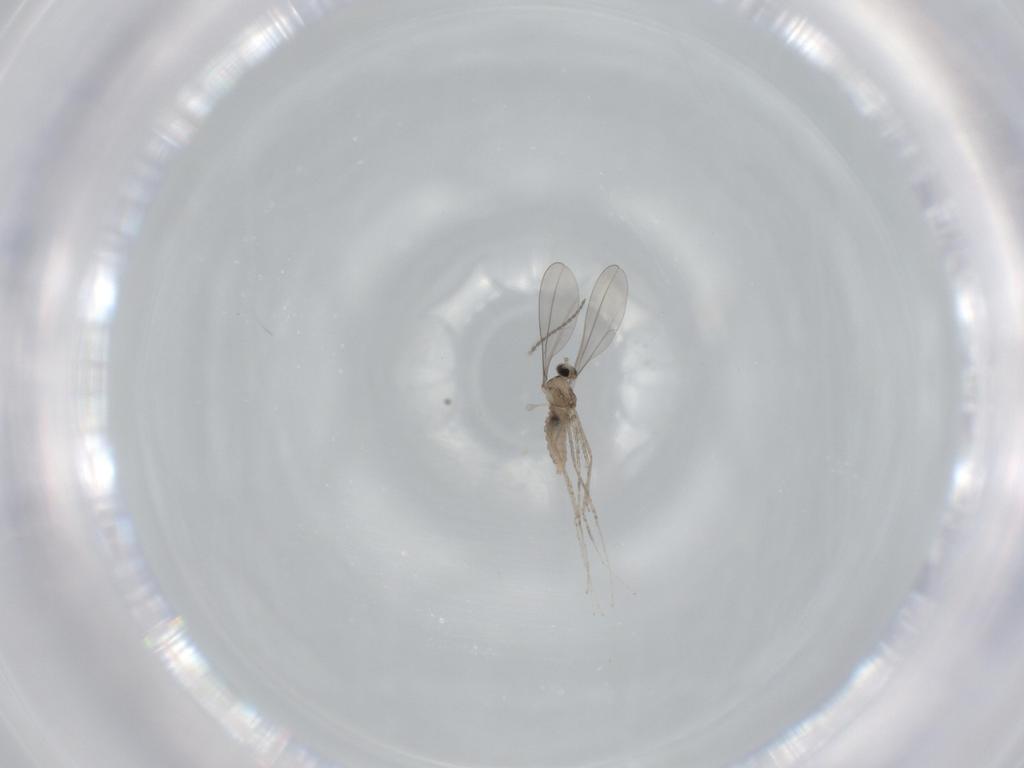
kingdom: Animalia
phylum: Arthropoda
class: Insecta
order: Diptera
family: Cecidomyiidae
